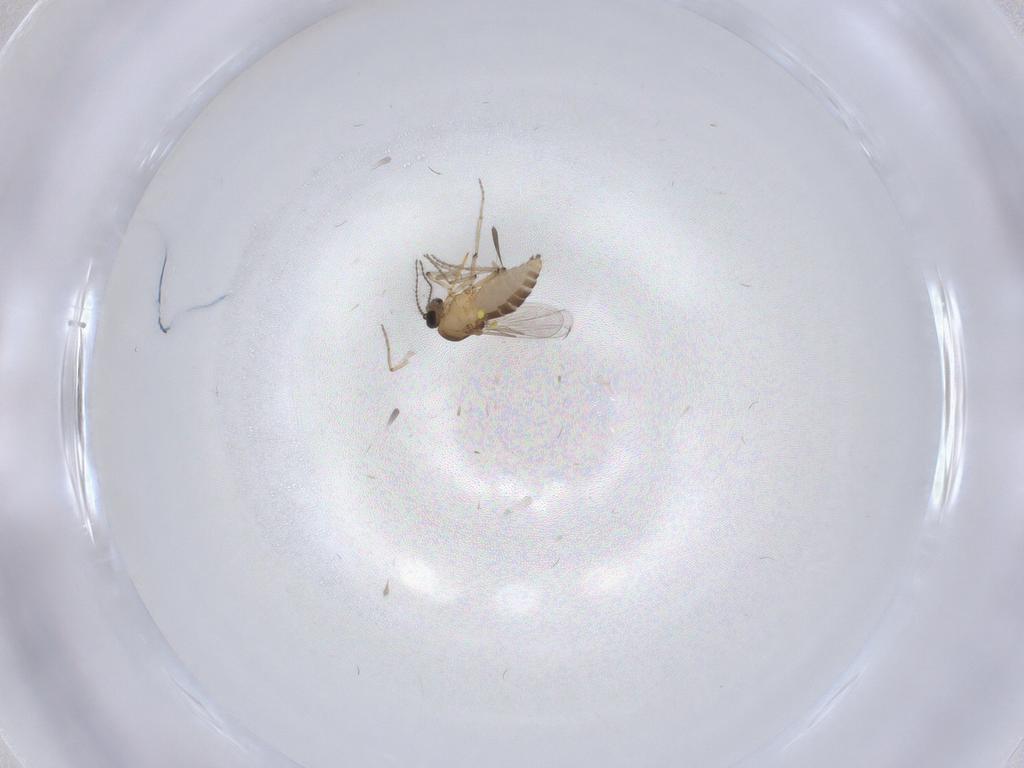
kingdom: Animalia
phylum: Arthropoda
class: Insecta
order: Diptera
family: Ceratopogonidae
